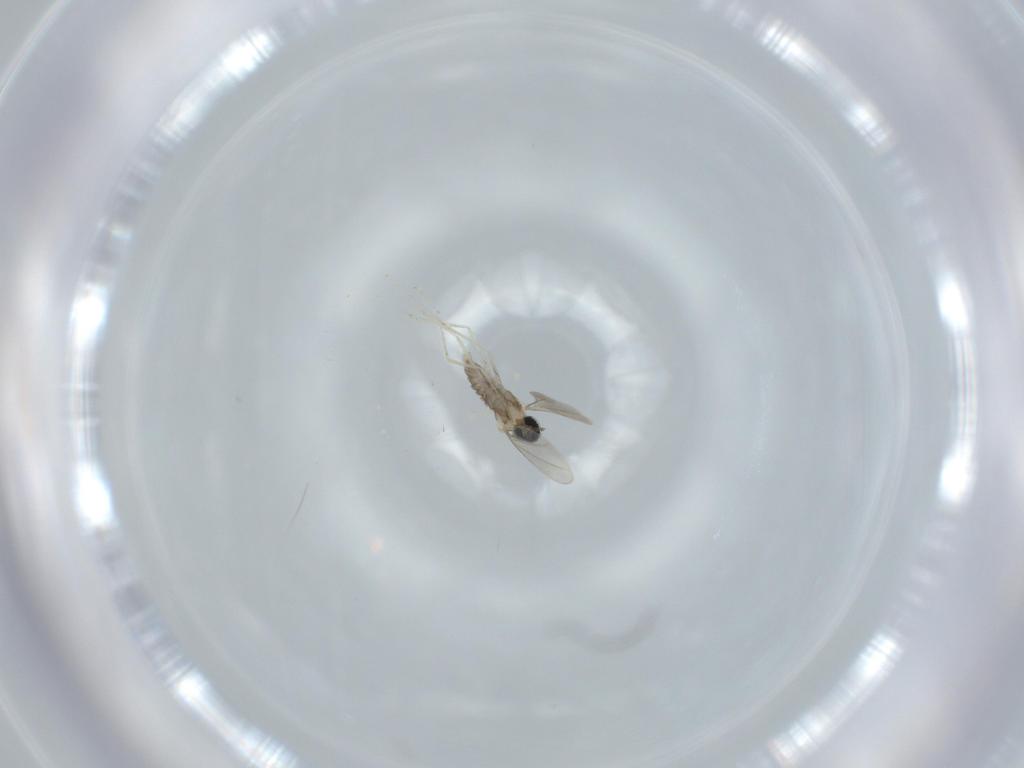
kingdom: Animalia
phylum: Arthropoda
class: Insecta
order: Diptera
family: Cecidomyiidae
